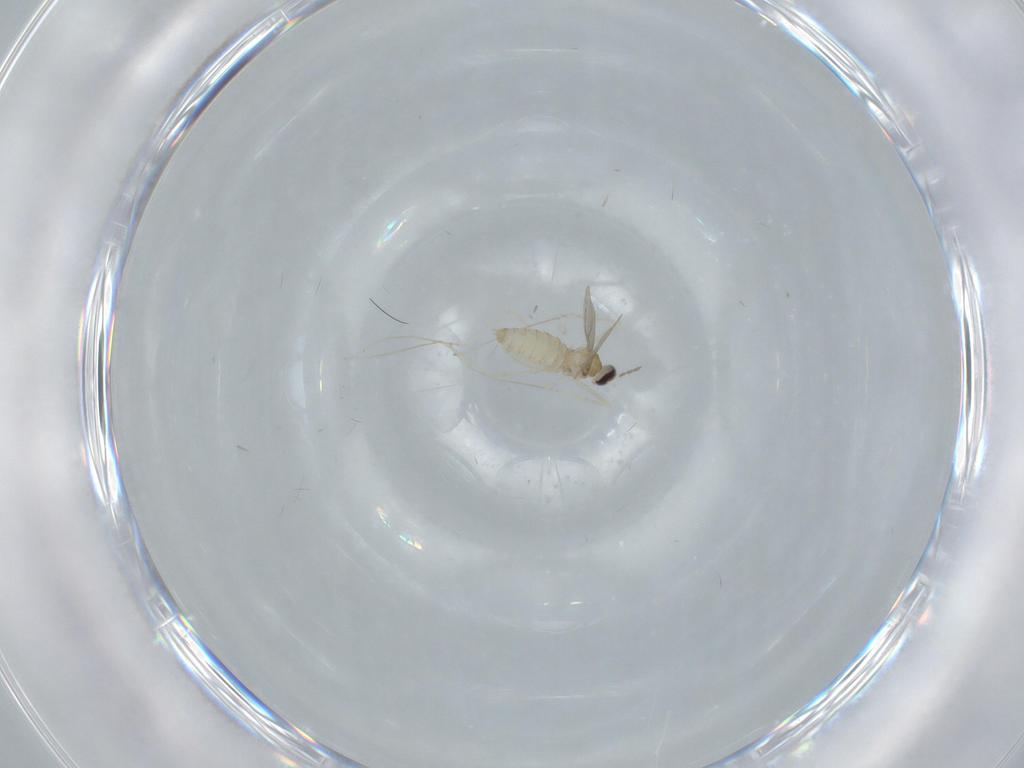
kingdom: Animalia
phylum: Arthropoda
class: Insecta
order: Diptera
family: Cecidomyiidae
